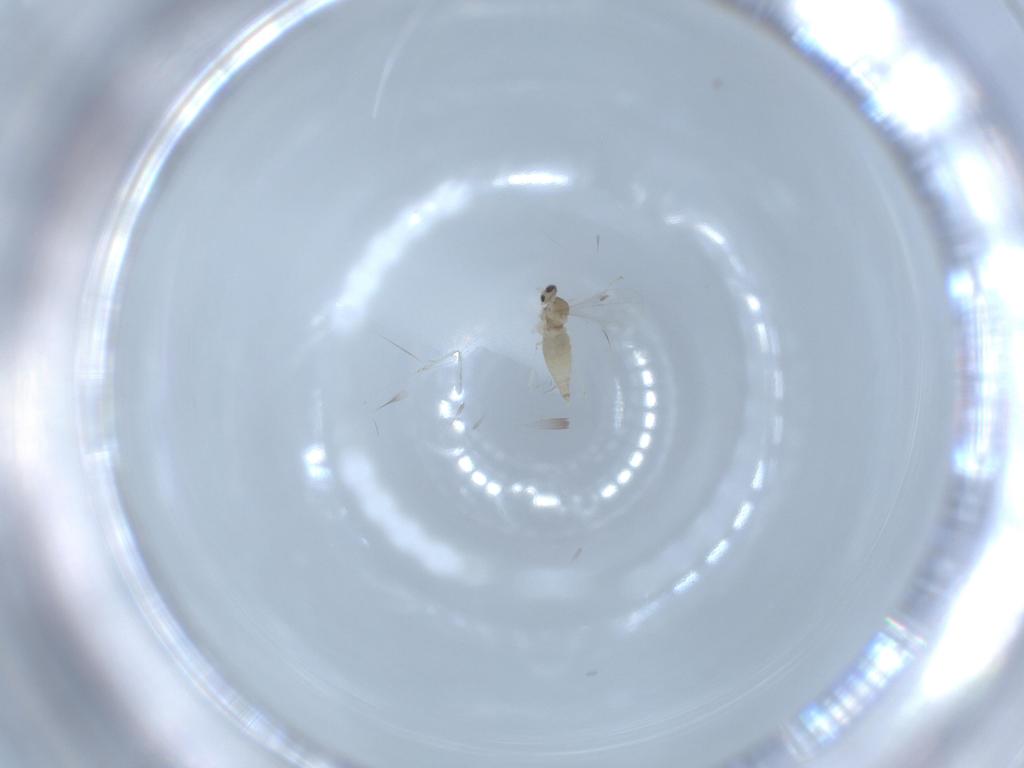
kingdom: Animalia
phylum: Arthropoda
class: Insecta
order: Diptera
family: Cecidomyiidae
